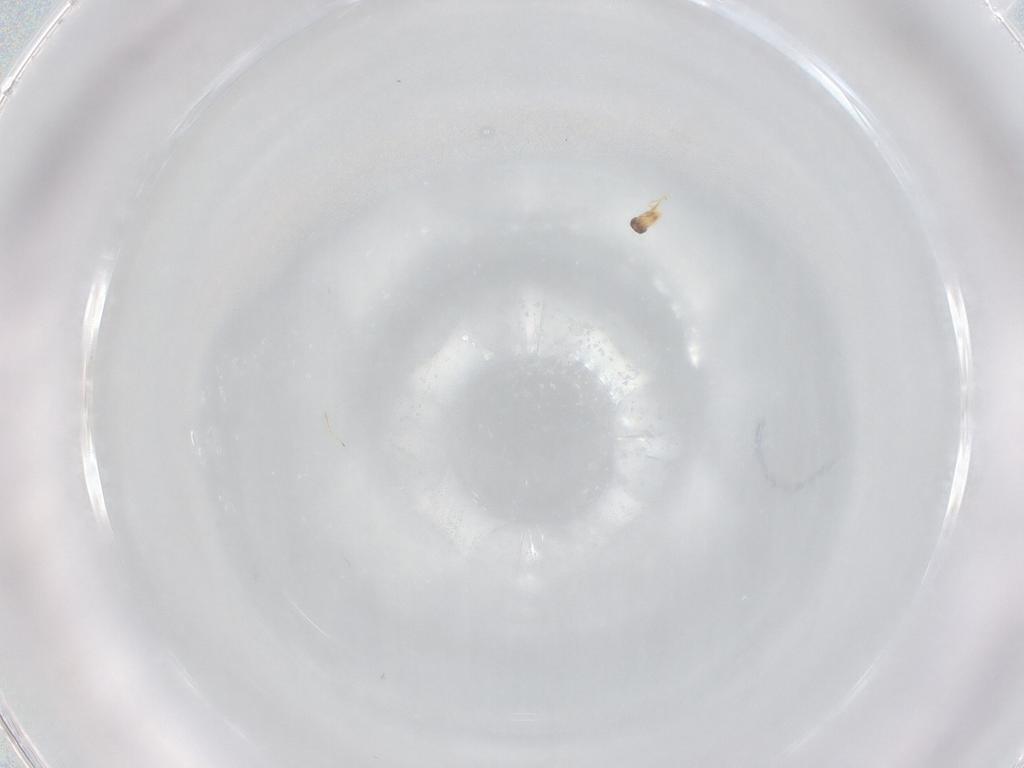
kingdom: Animalia
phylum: Arthropoda
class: Insecta
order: Hymenoptera
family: Mymaridae
